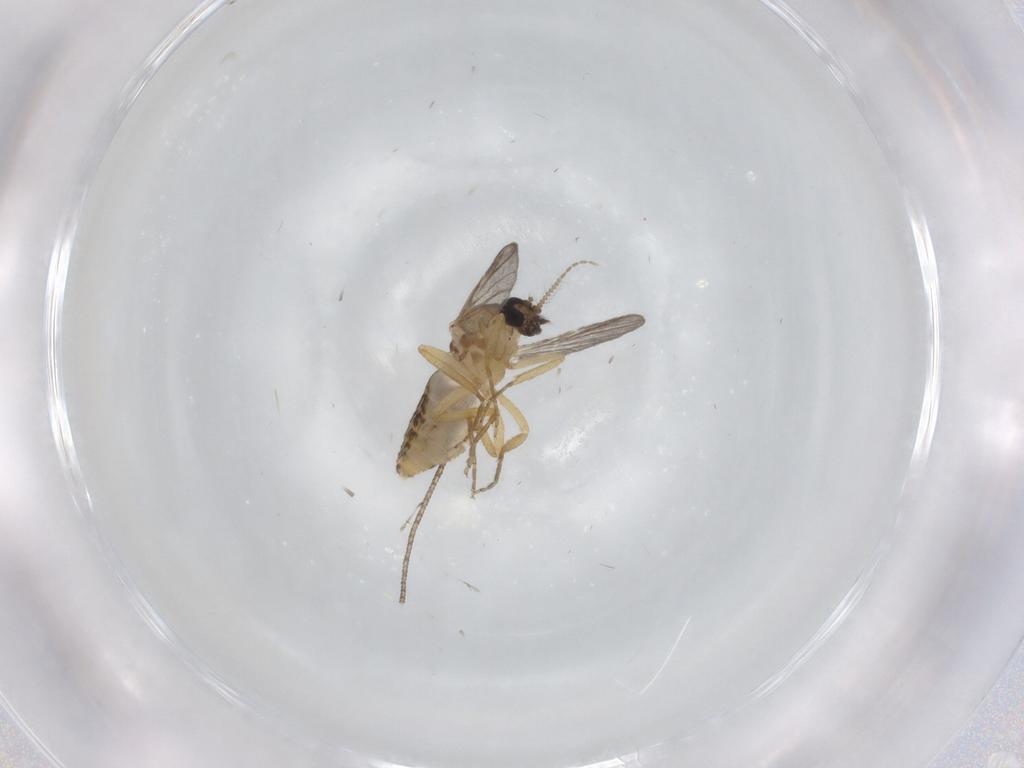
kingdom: Animalia
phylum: Arthropoda
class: Insecta
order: Diptera
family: Ceratopogonidae
